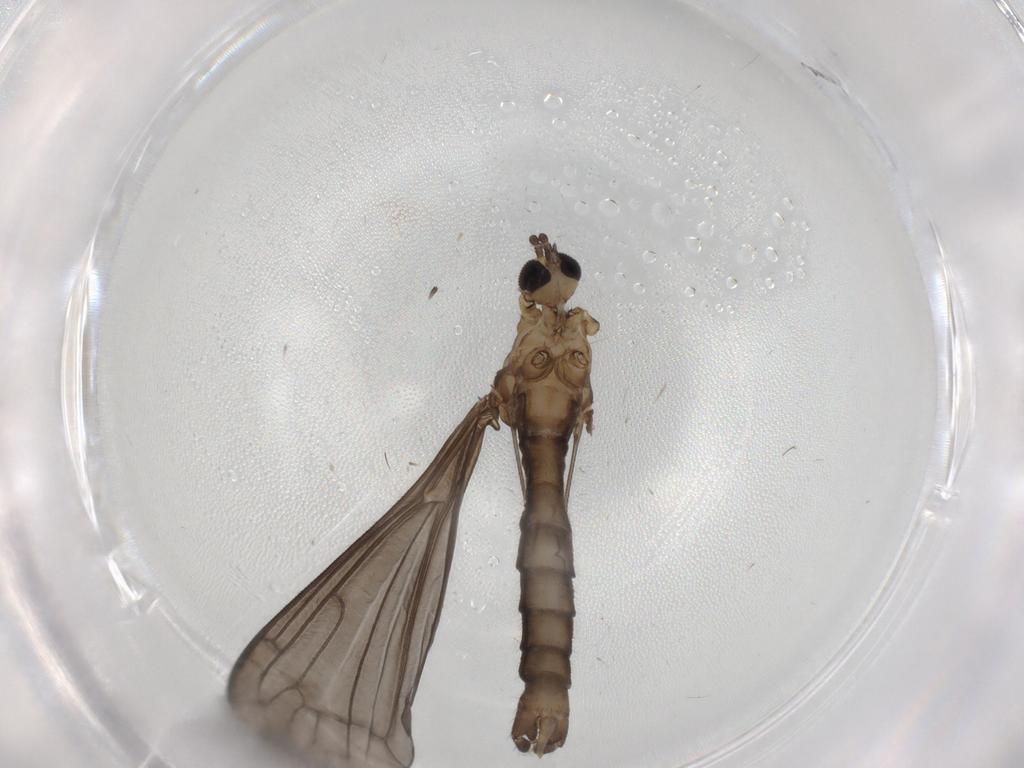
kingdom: Animalia
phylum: Arthropoda
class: Insecta
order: Diptera
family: Limoniidae
